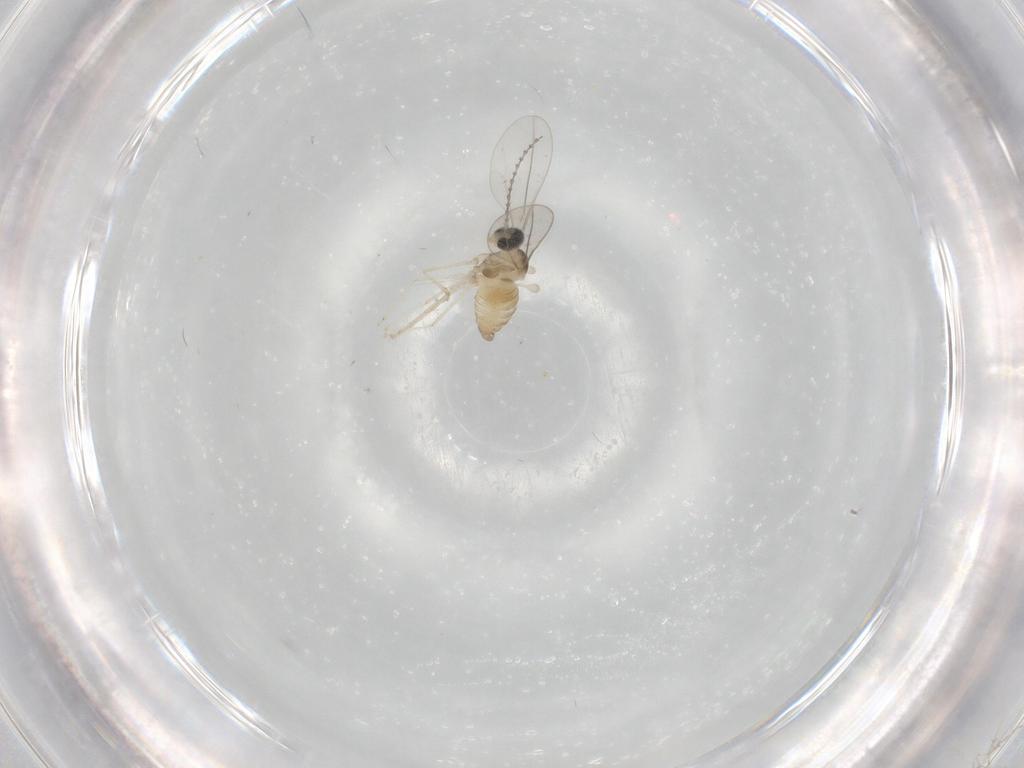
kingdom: Animalia
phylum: Arthropoda
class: Insecta
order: Diptera
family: Cecidomyiidae
